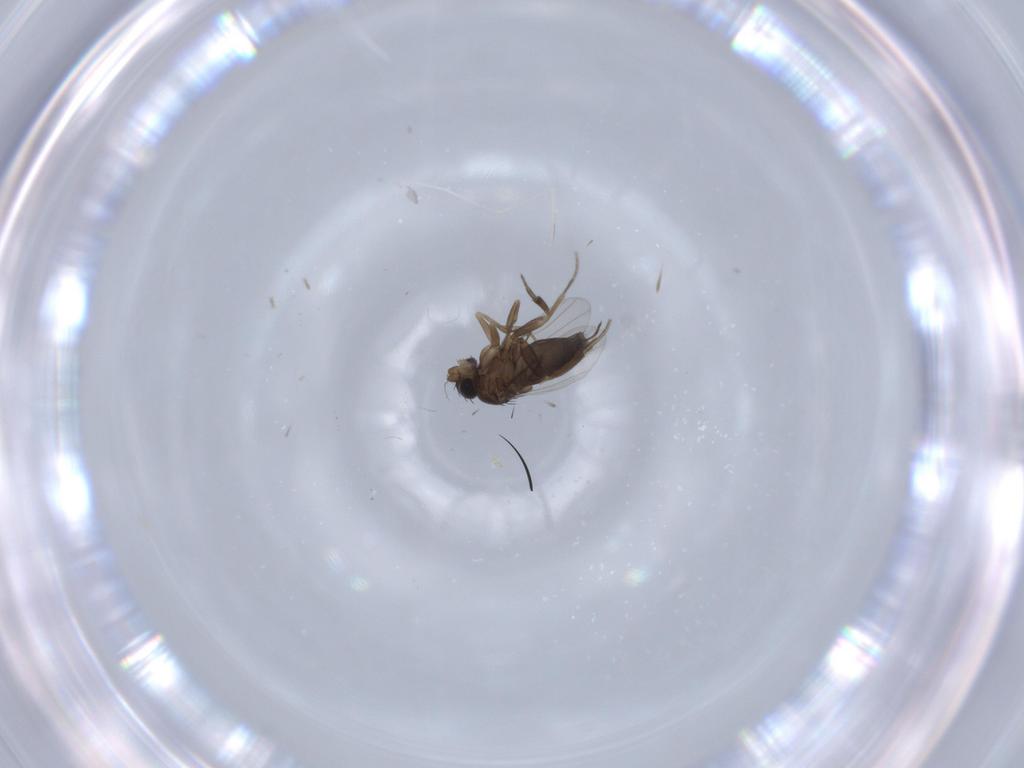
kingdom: Animalia
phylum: Arthropoda
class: Insecta
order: Diptera
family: Phoridae
